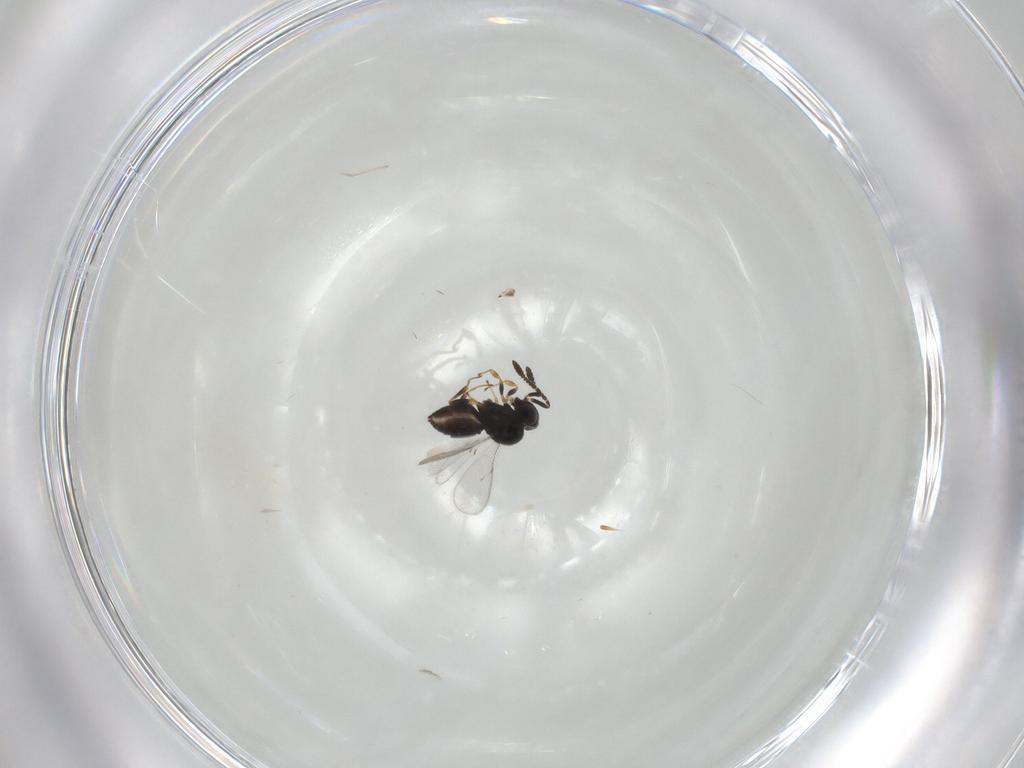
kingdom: Animalia
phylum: Arthropoda
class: Insecta
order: Hymenoptera
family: Scelionidae
